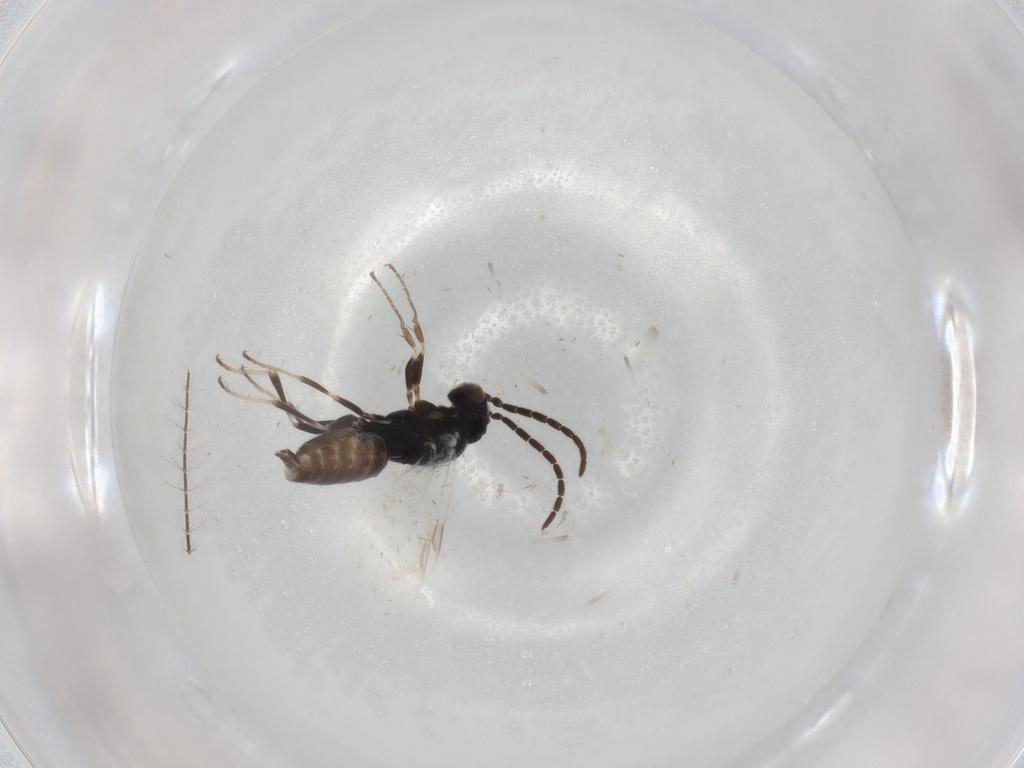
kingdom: Animalia
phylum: Arthropoda
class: Insecta
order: Hymenoptera
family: Dryinidae
